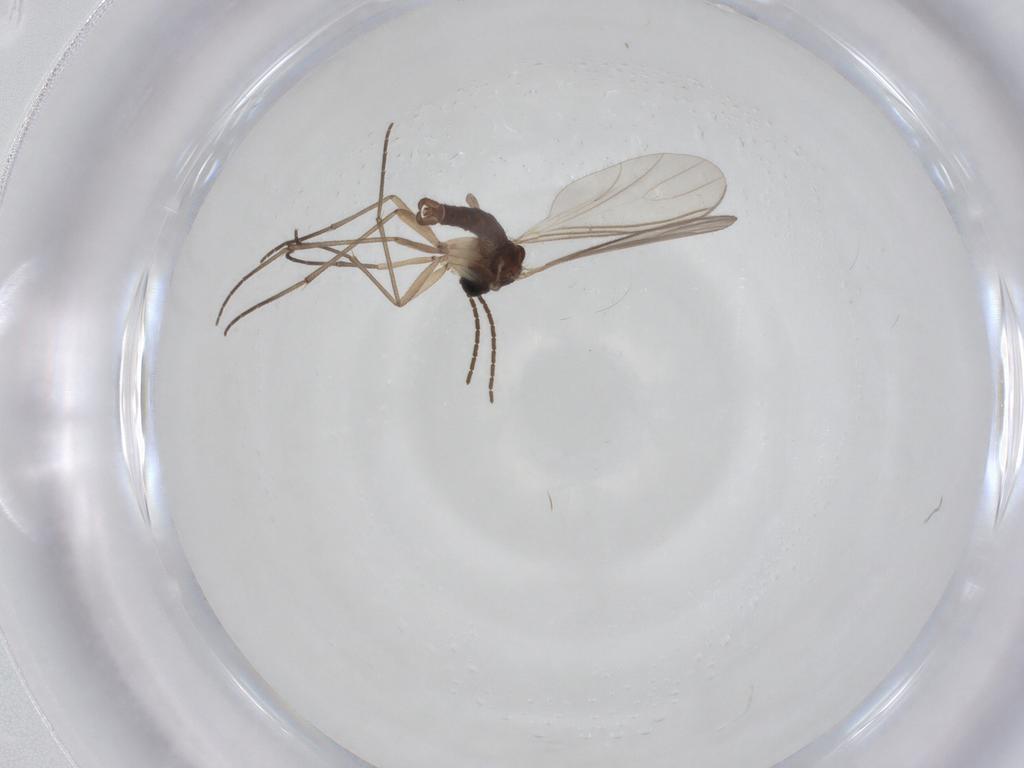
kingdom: Animalia
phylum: Arthropoda
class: Insecta
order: Diptera
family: Sciaridae
